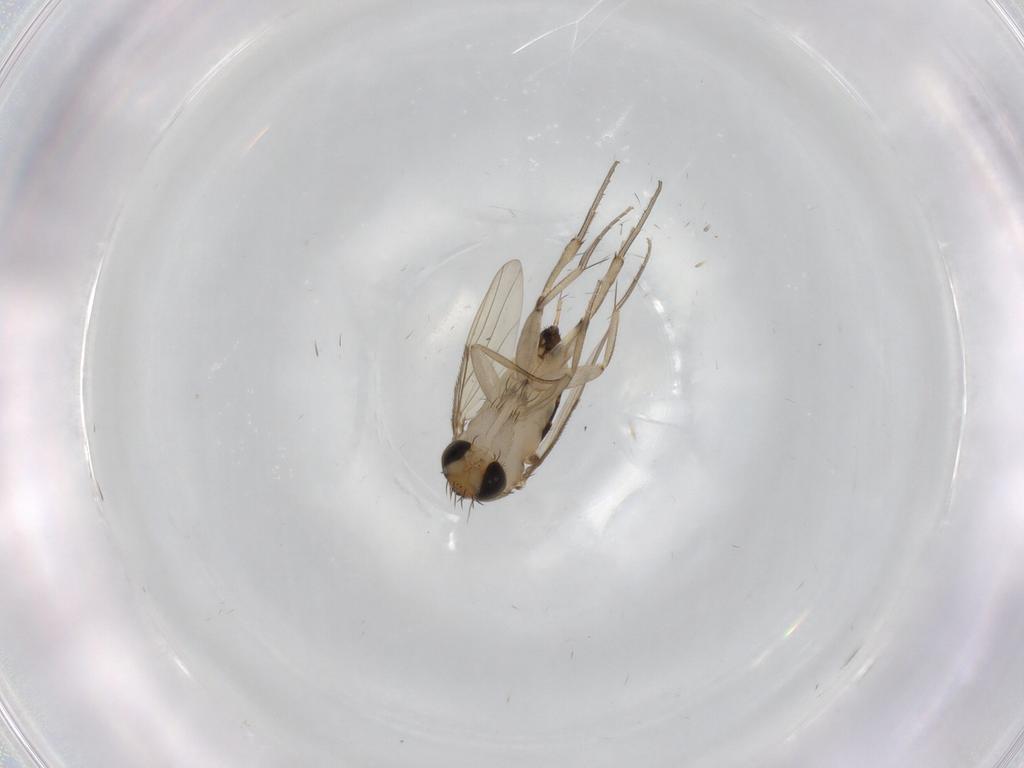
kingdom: Animalia
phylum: Arthropoda
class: Insecta
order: Diptera
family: Phoridae
